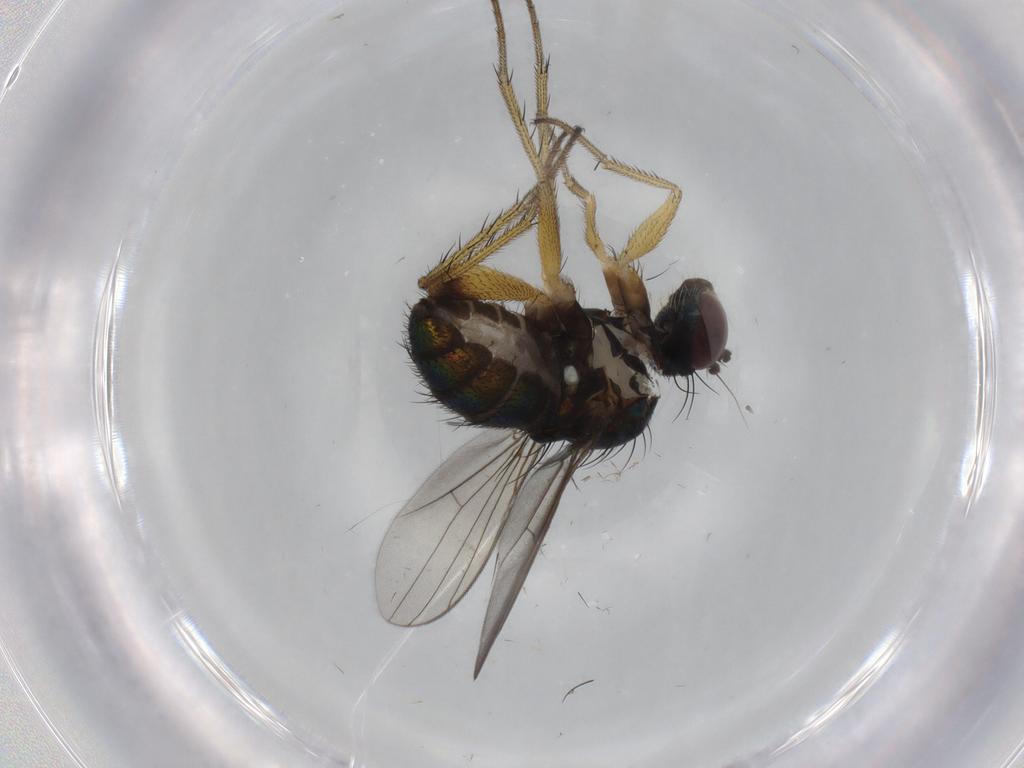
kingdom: Animalia
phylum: Arthropoda
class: Insecta
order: Diptera
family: Dolichopodidae
